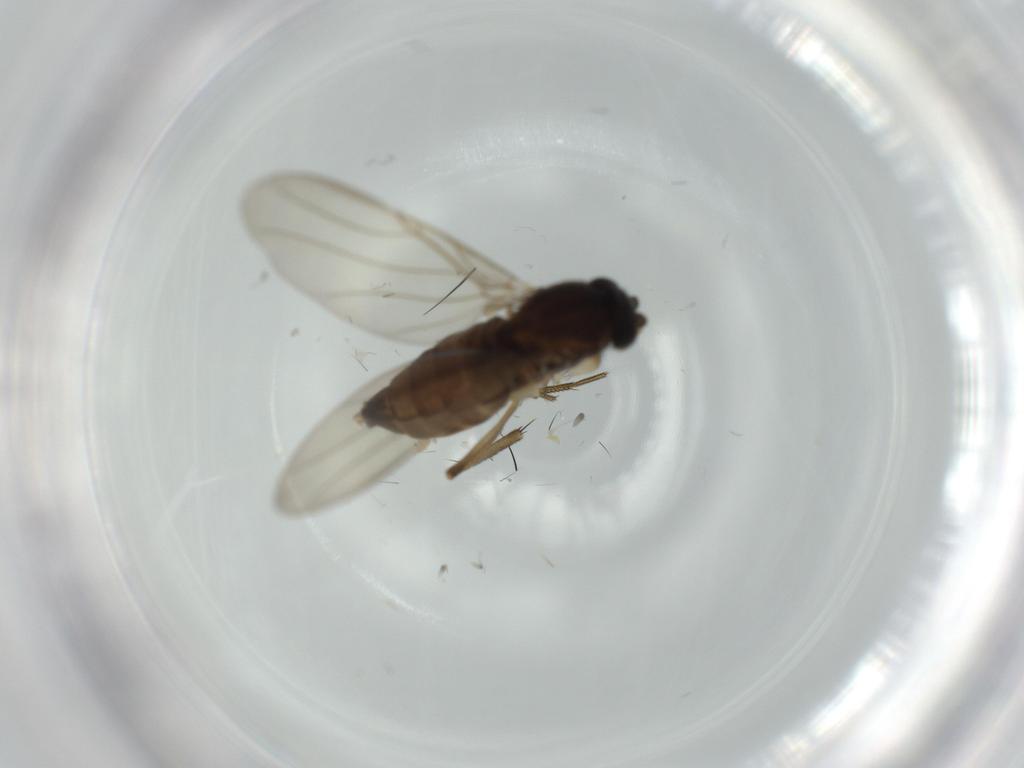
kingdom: Animalia
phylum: Arthropoda
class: Insecta
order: Diptera
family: Phoridae
